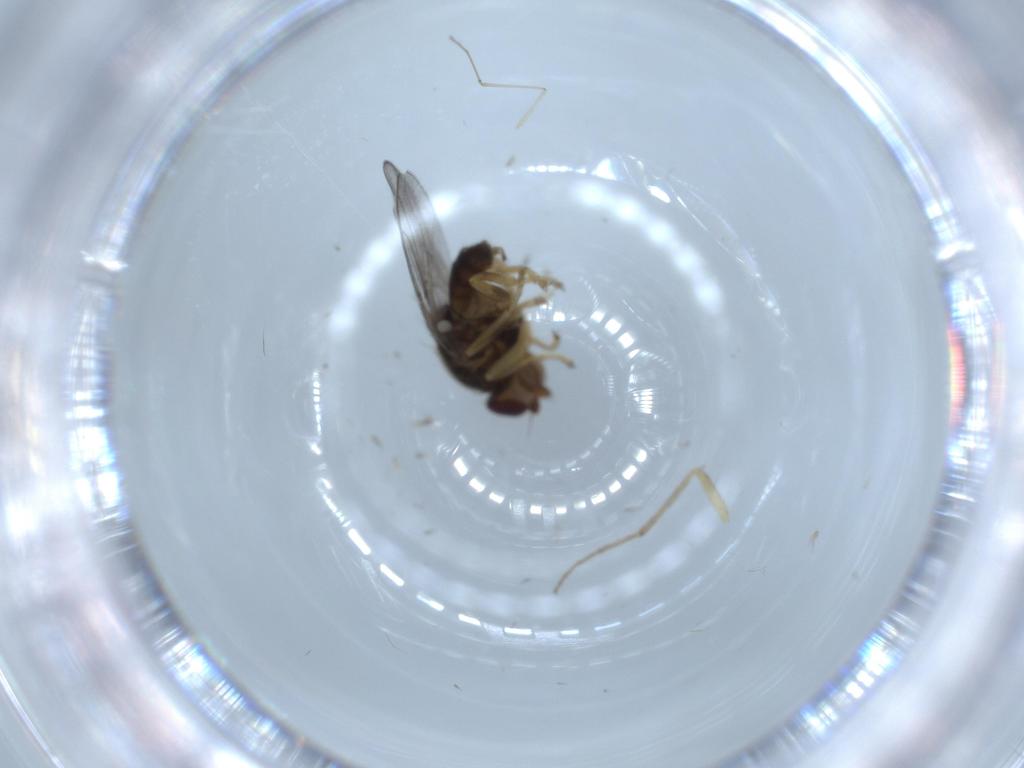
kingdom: Animalia
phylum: Arthropoda
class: Insecta
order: Diptera
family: Chloropidae
